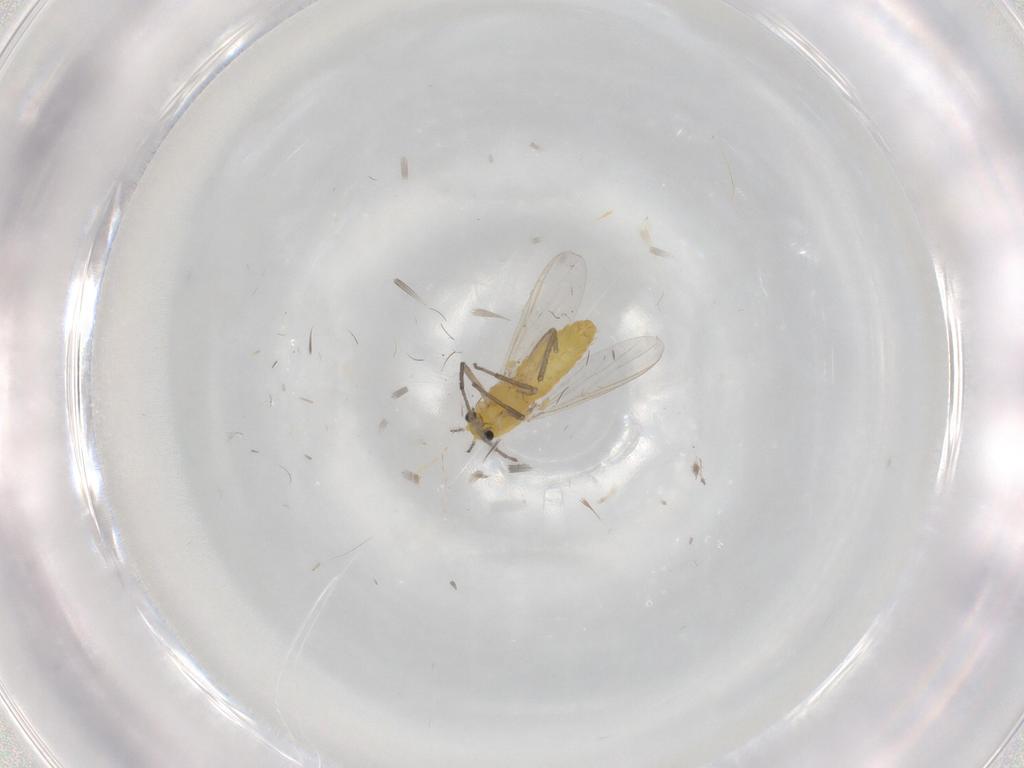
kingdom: Animalia
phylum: Arthropoda
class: Insecta
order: Diptera
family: Chironomidae
